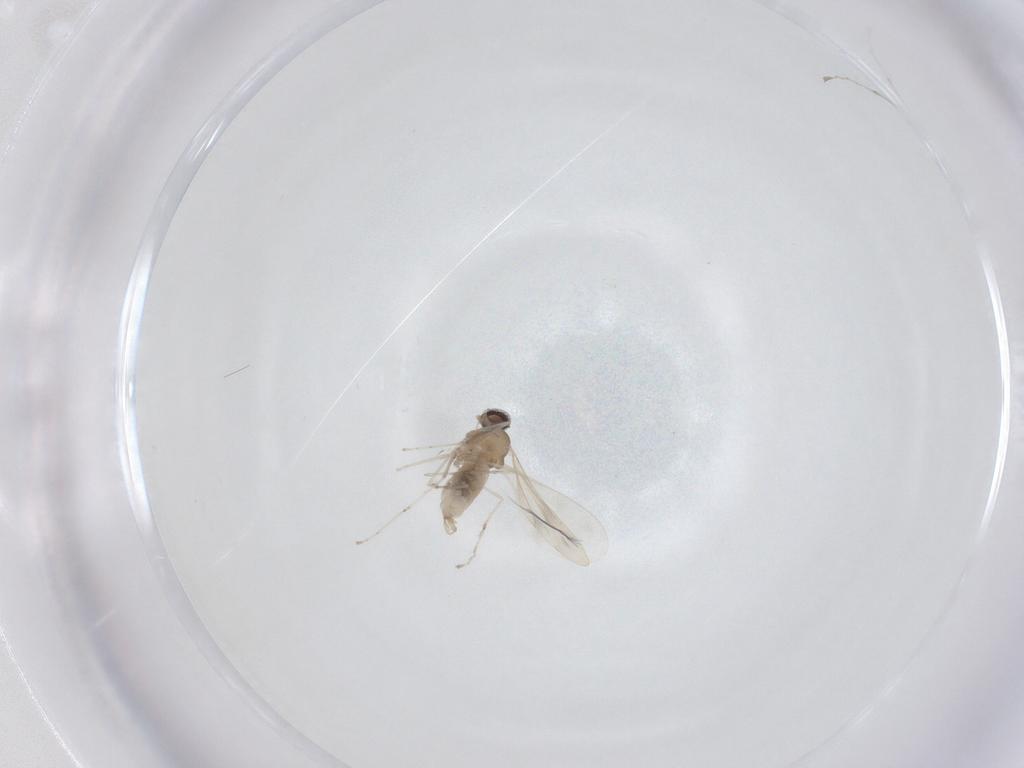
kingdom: Animalia
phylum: Arthropoda
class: Insecta
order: Diptera
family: Cecidomyiidae
